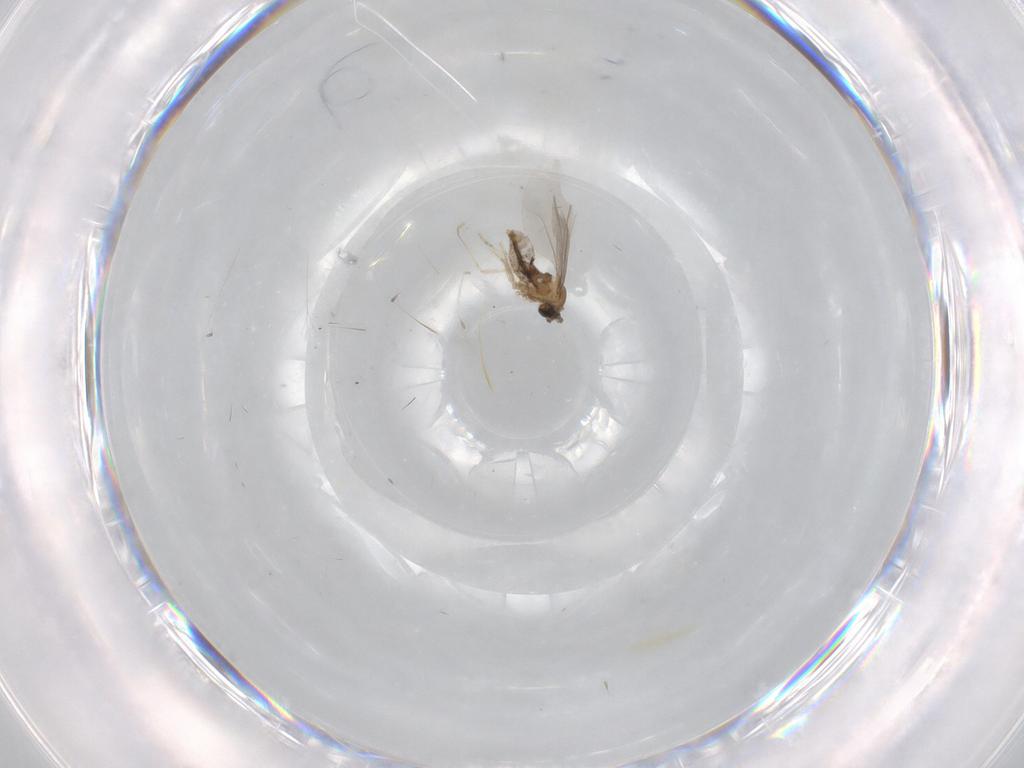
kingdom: Animalia
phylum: Arthropoda
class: Insecta
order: Diptera
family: Cecidomyiidae
